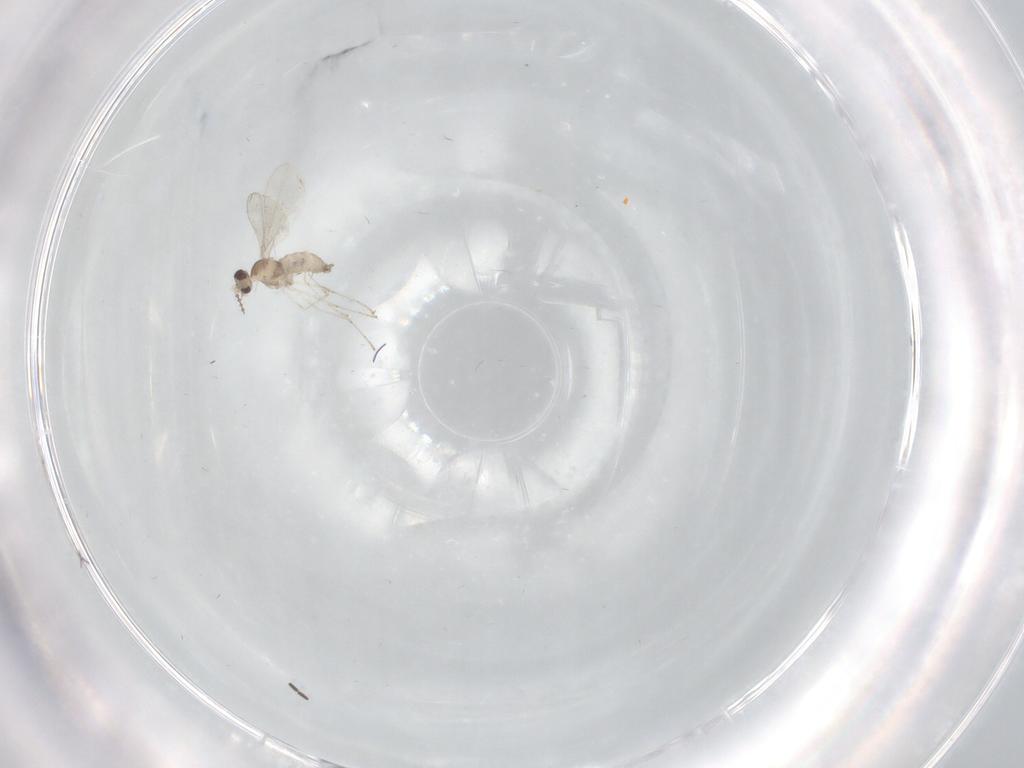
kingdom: Animalia
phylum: Arthropoda
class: Insecta
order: Diptera
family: Cecidomyiidae
